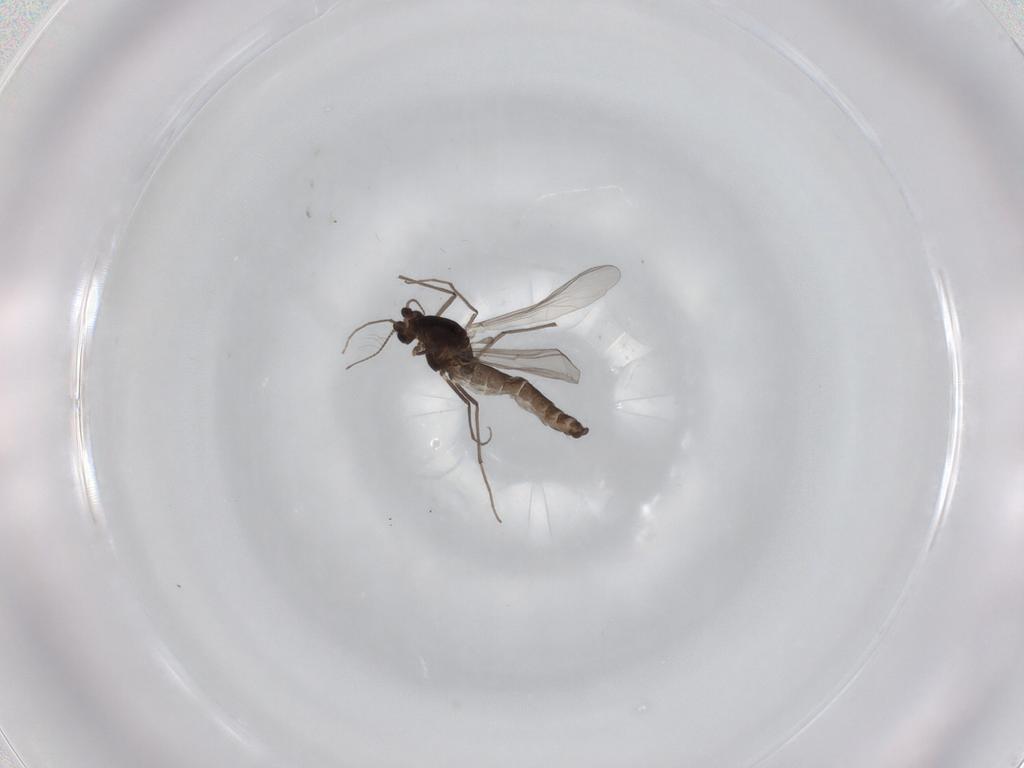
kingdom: Animalia
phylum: Arthropoda
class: Insecta
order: Diptera
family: Chironomidae
